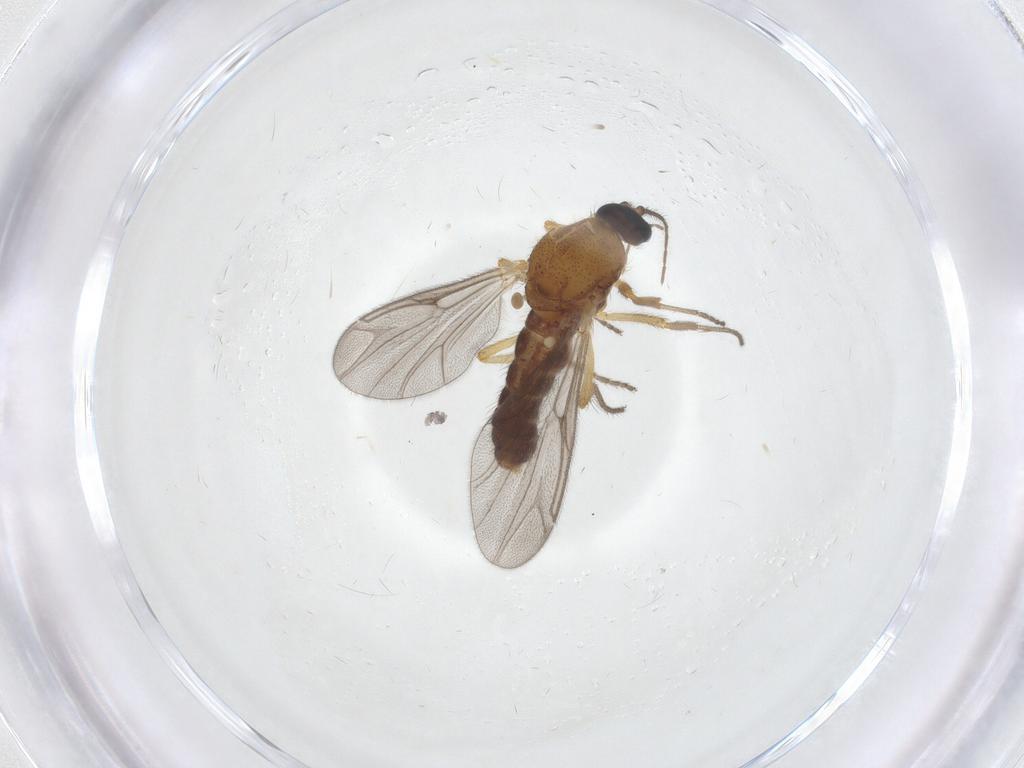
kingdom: Animalia
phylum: Arthropoda
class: Insecta
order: Diptera
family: Ceratopogonidae
